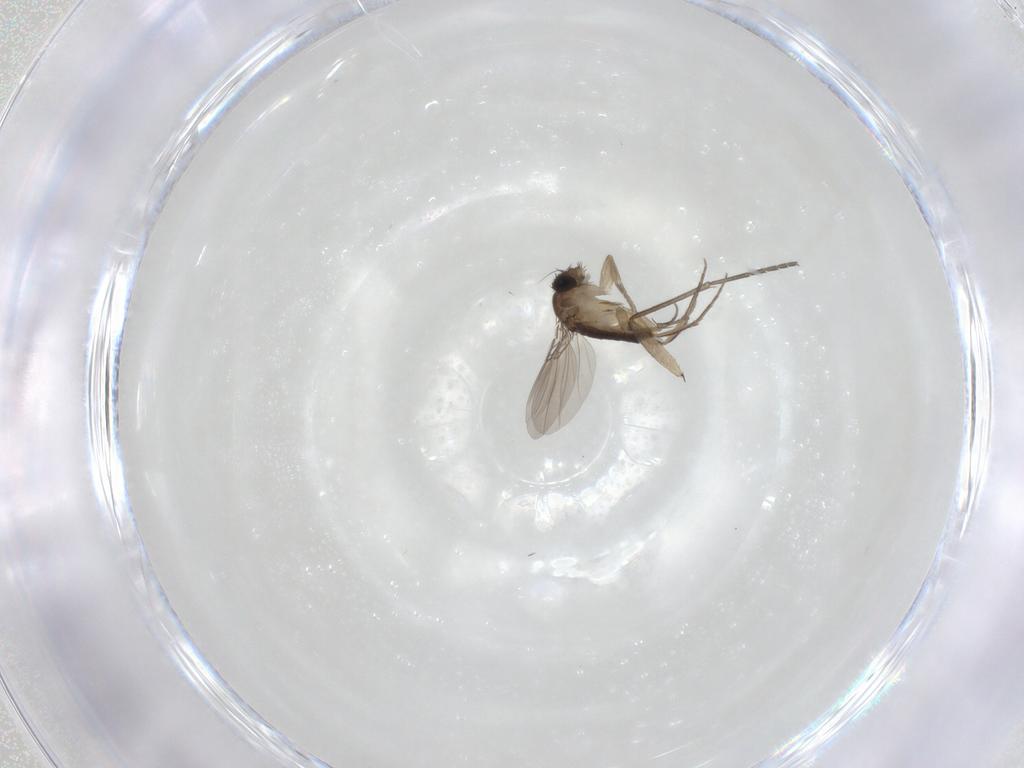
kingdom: Animalia
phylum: Arthropoda
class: Insecta
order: Diptera
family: Phoridae
